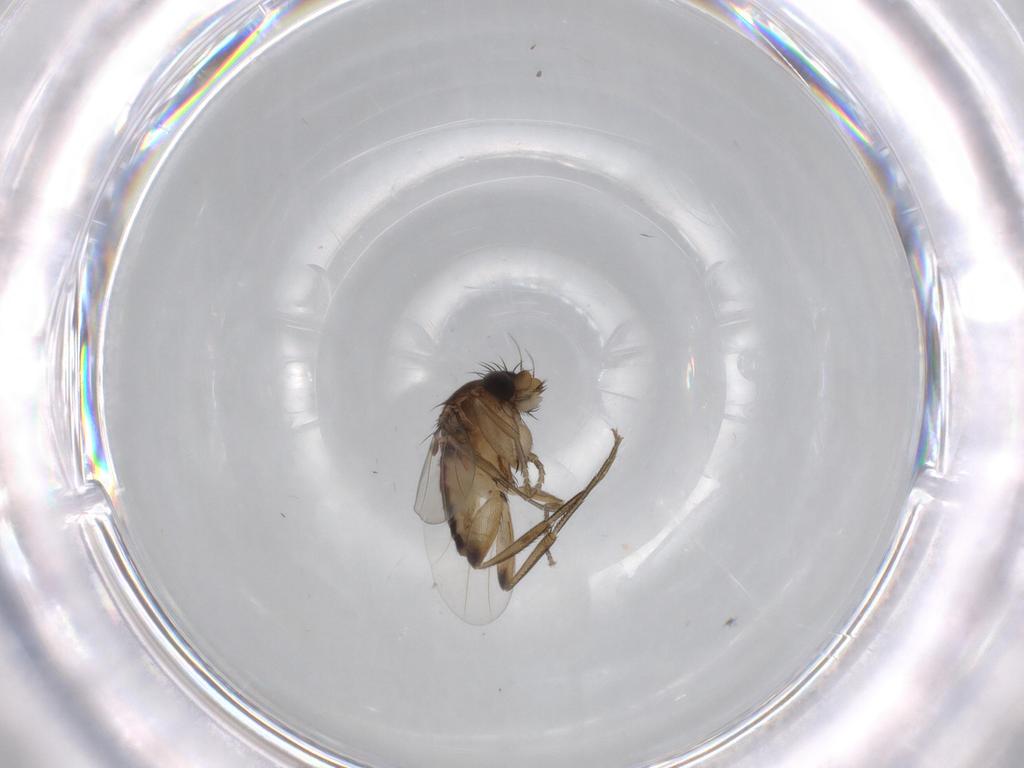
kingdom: Animalia
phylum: Arthropoda
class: Insecta
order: Diptera
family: Phoridae
